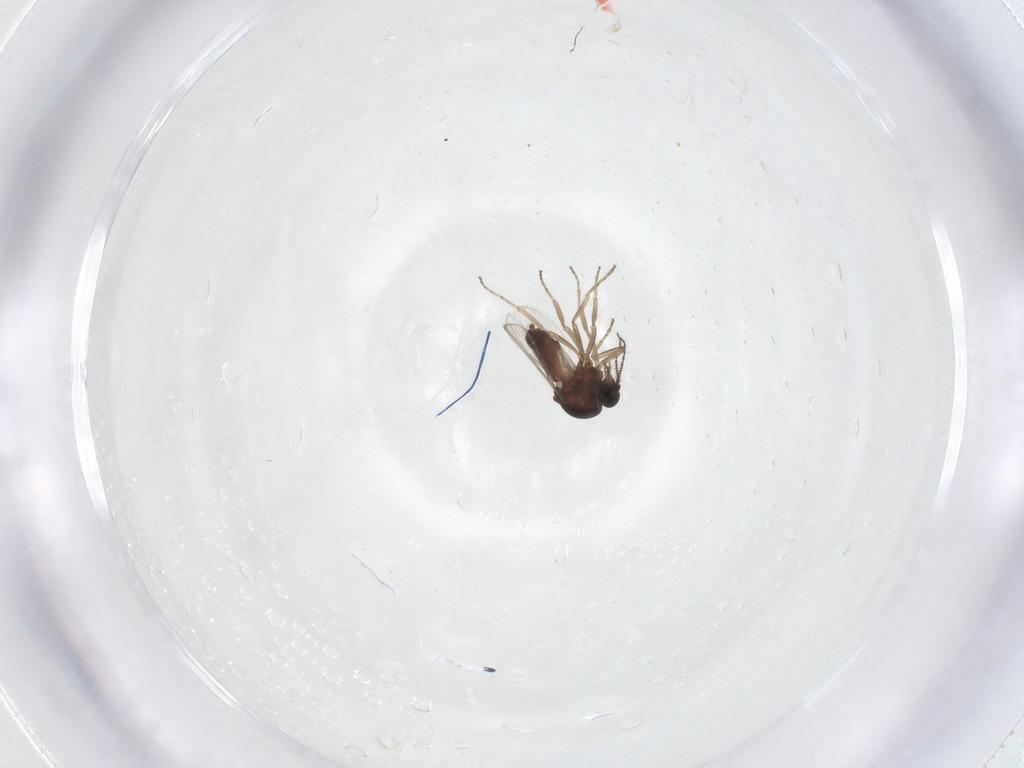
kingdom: Animalia
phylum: Arthropoda
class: Insecta
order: Diptera
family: Ceratopogonidae
